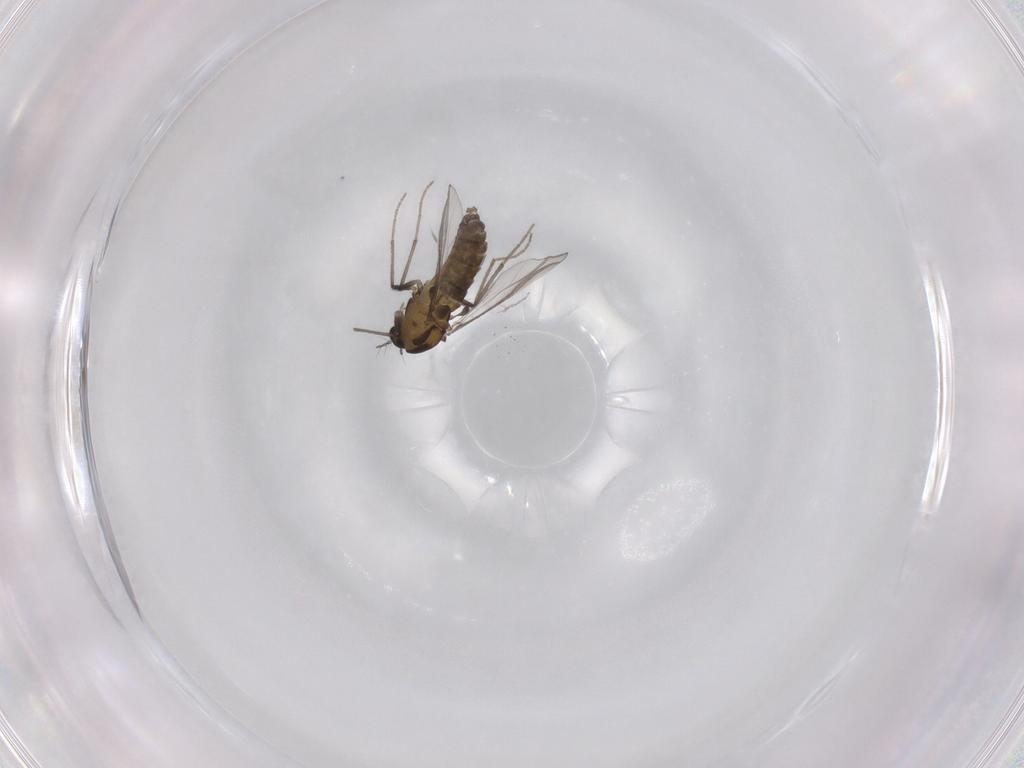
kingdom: Animalia
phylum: Arthropoda
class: Insecta
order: Diptera
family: Chironomidae
